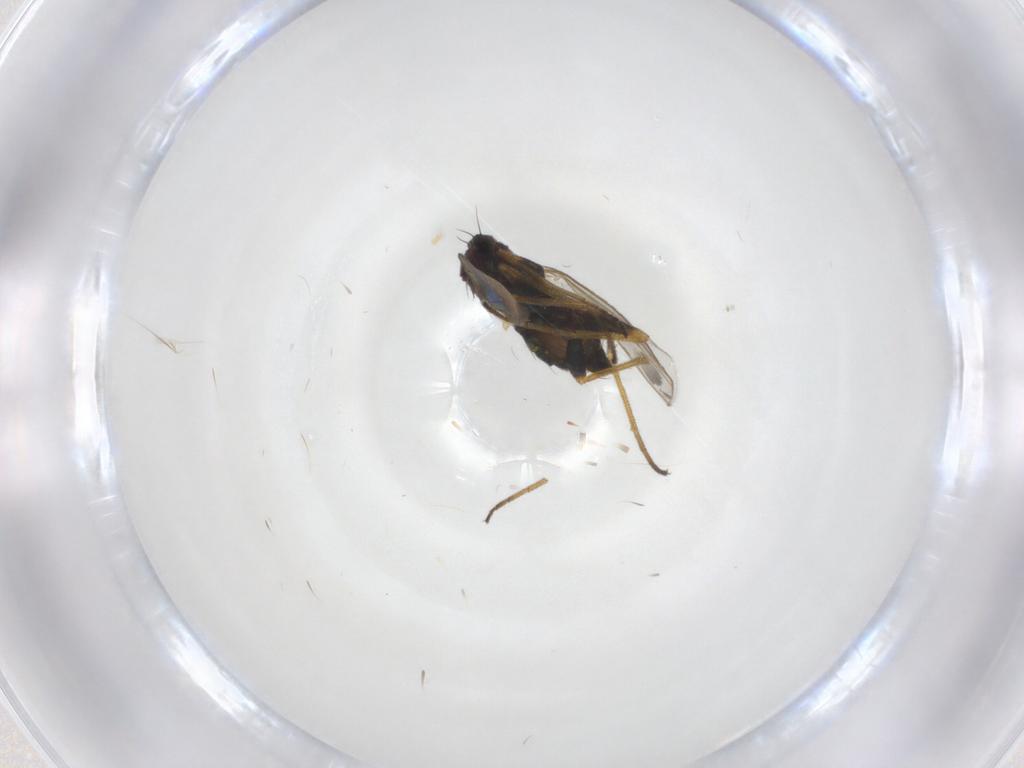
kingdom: Animalia
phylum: Arthropoda
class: Insecta
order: Diptera
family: Dolichopodidae
